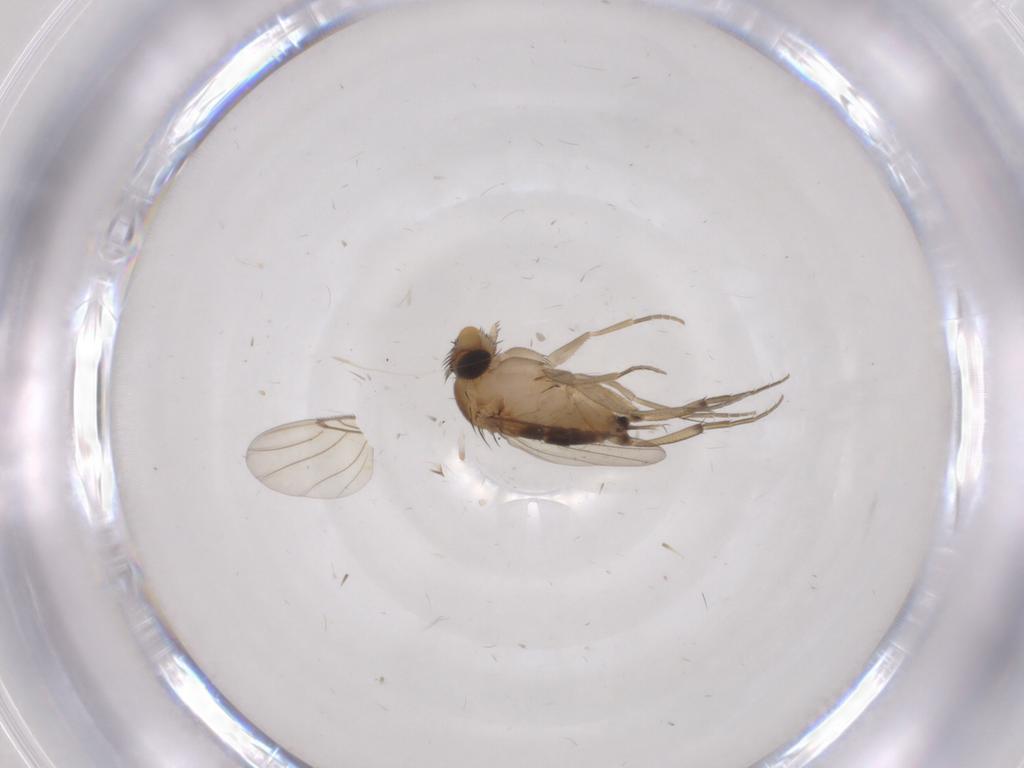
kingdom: Animalia
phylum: Arthropoda
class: Insecta
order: Diptera
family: Phoridae
